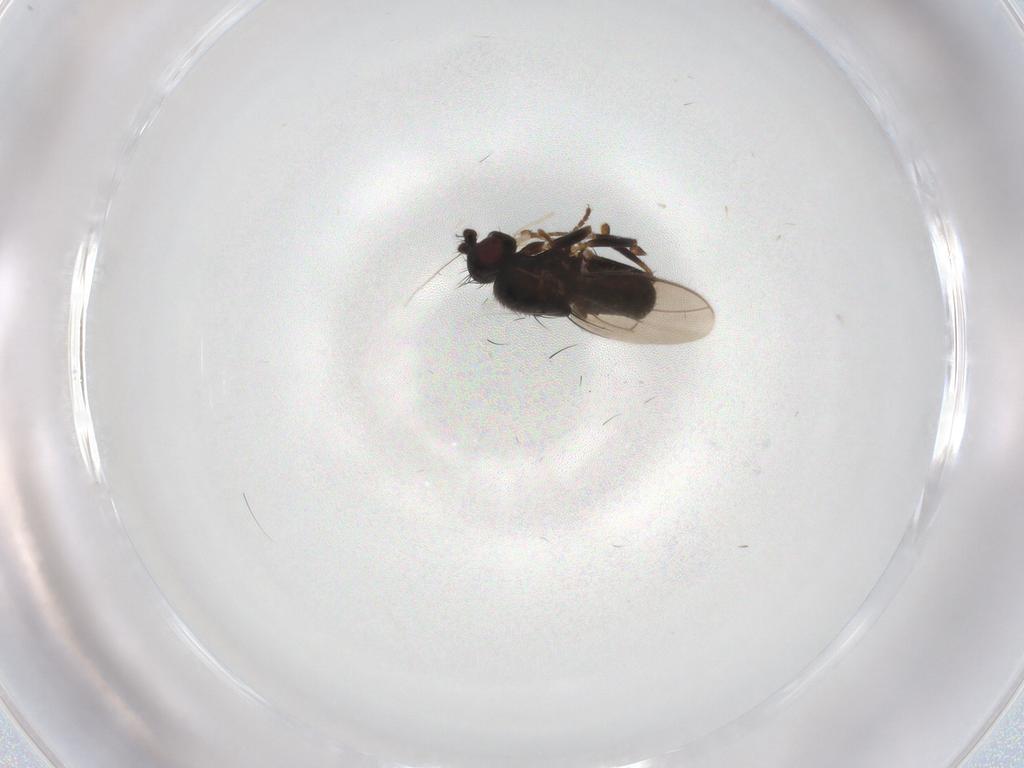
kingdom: Animalia
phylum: Arthropoda
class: Insecta
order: Diptera
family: Sphaeroceridae
